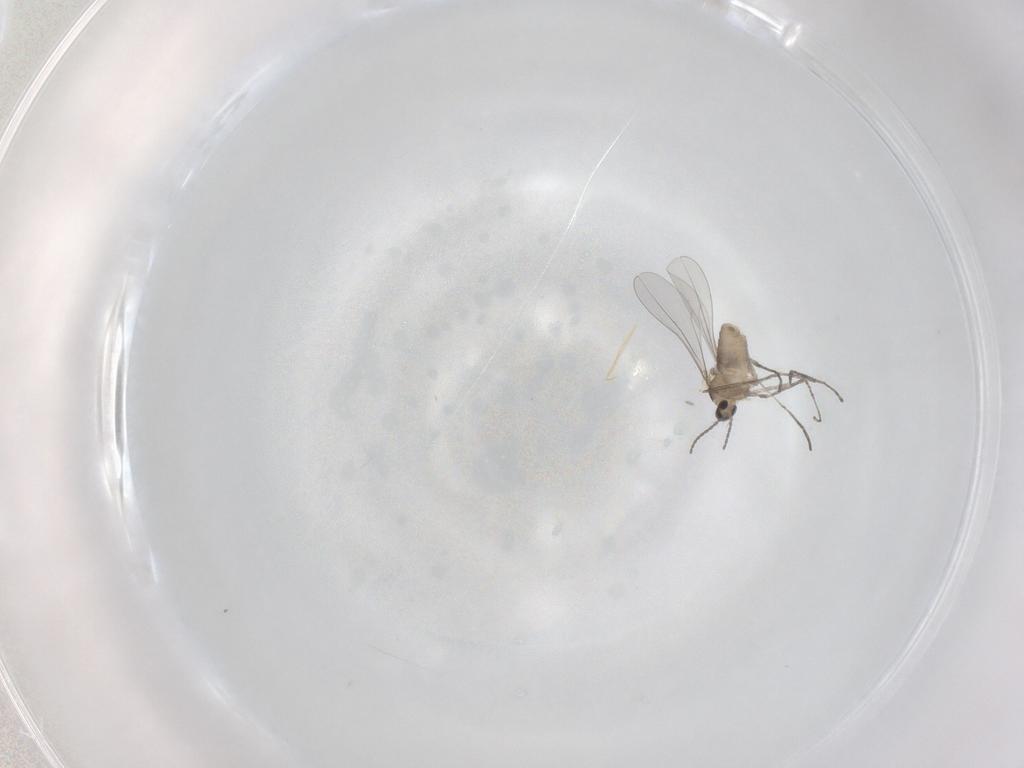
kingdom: Animalia
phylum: Arthropoda
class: Insecta
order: Diptera
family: Cecidomyiidae
